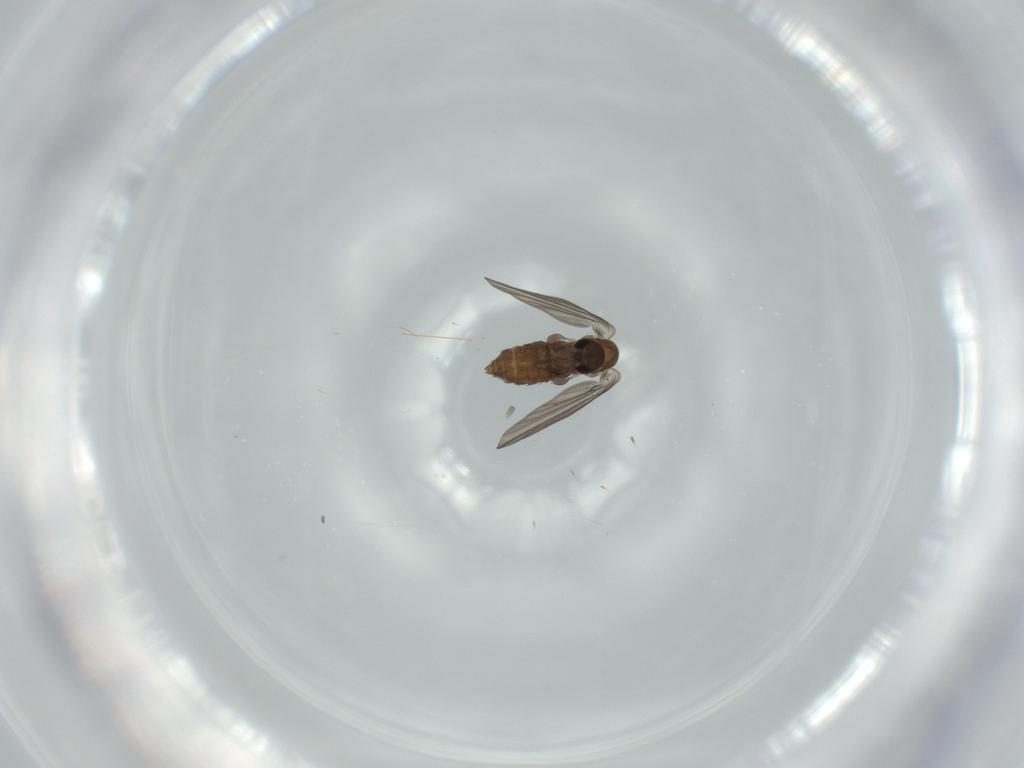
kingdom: Animalia
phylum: Arthropoda
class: Insecta
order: Diptera
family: Psychodidae
